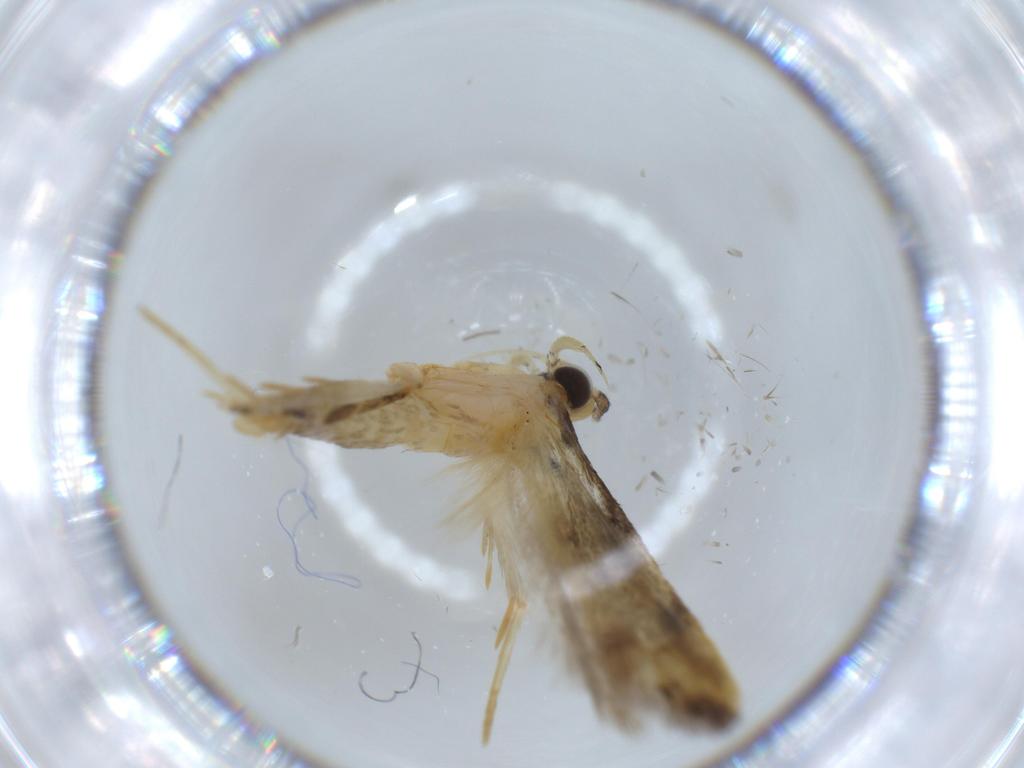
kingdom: Animalia
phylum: Arthropoda
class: Insecta
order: Lepidoptera
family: Autostichidae
